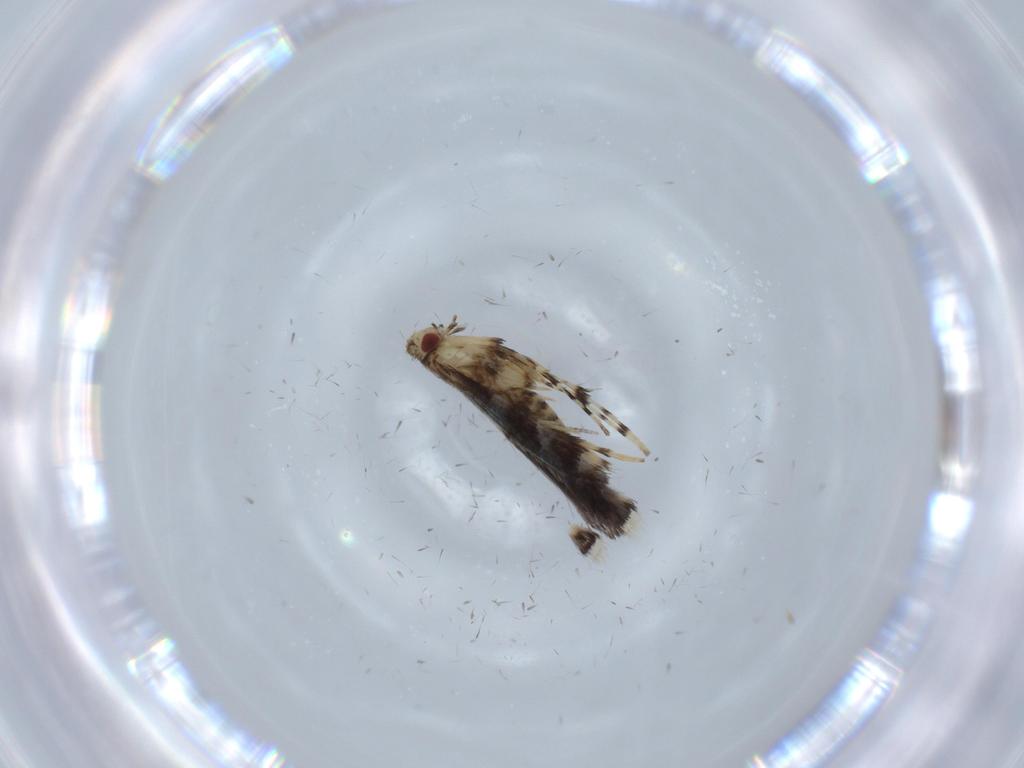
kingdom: Animalia
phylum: Arthropoda
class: Insecta
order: Lepidoptera
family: Gracillariidae
